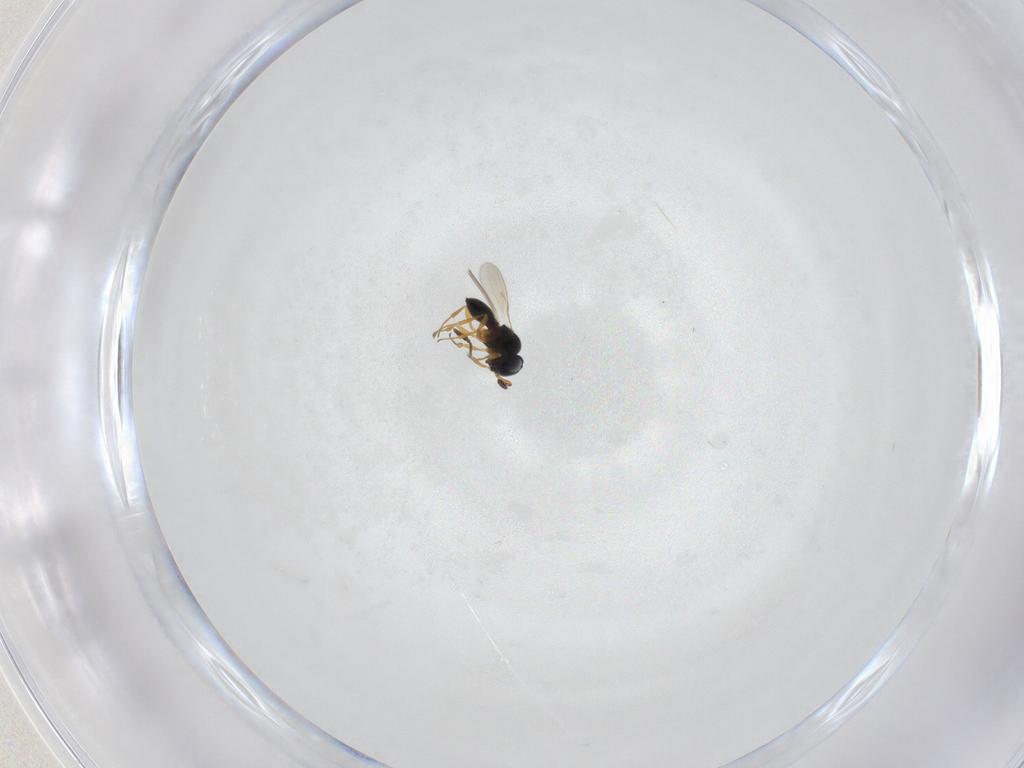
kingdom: Animalia
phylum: Arthropoda
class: Insecta
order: Hymenoptera
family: Scelionidae
